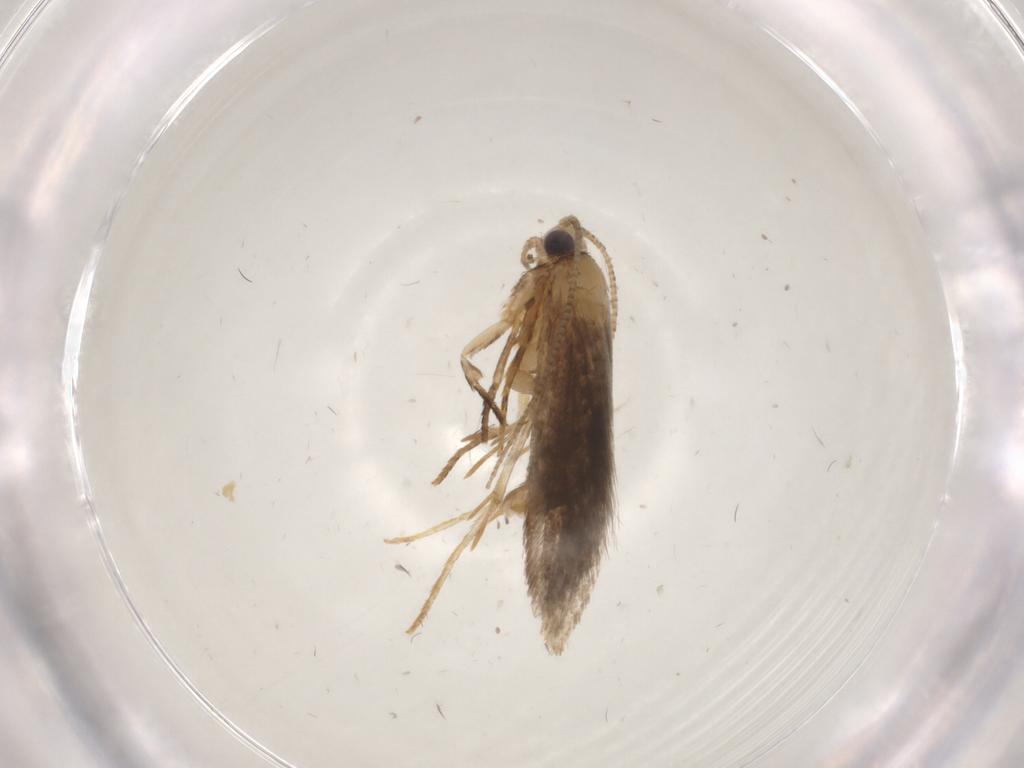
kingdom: Animalia
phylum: Arthropoda
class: Insecta
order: Lepidoptera
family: Tineidae
